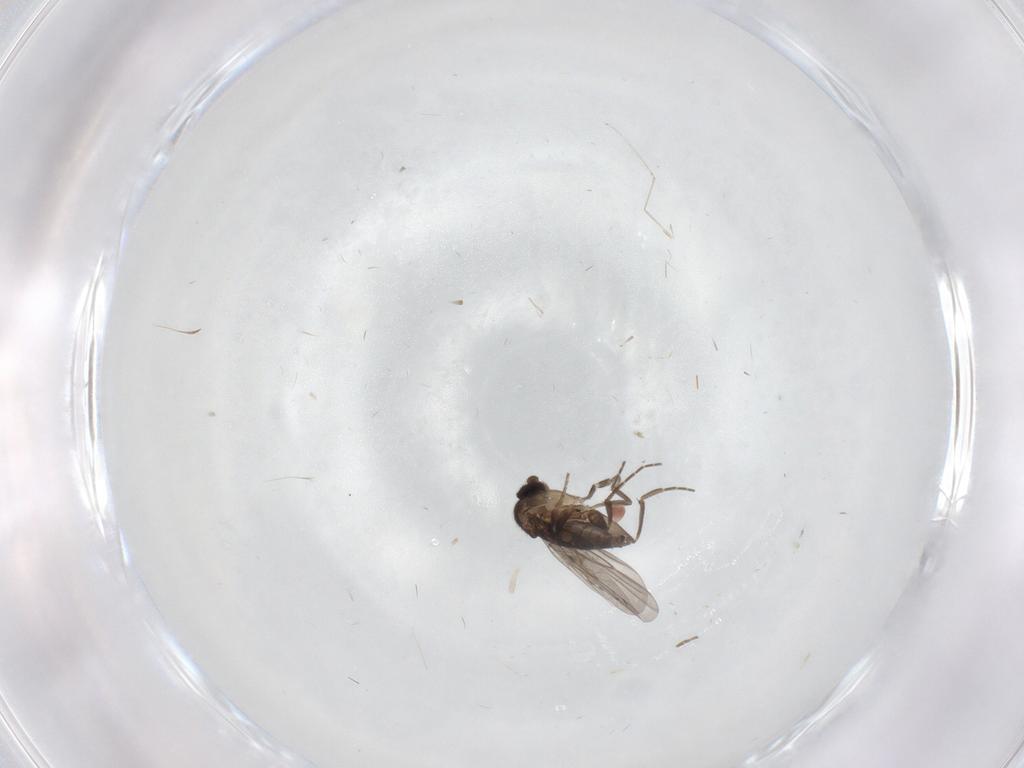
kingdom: Animalia
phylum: Arthropoda
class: Insecta
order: Diptera
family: Phoridae
